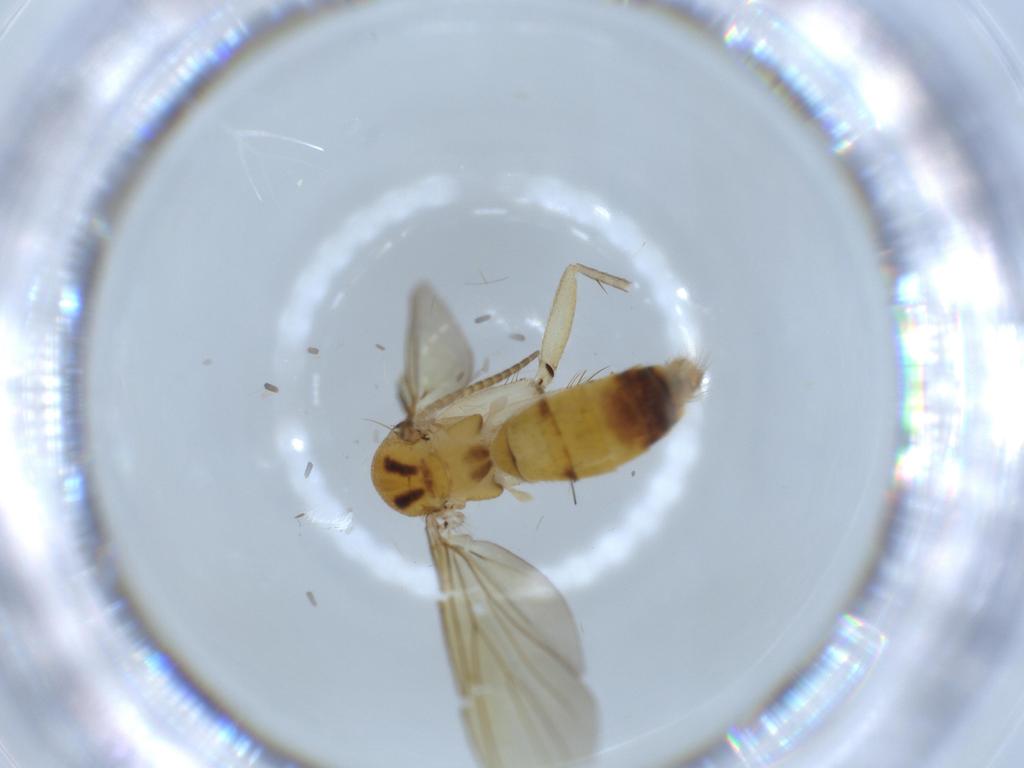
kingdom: Animalia
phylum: Arthropoda
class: Insecta
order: Diptera
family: Mycetophilidae
